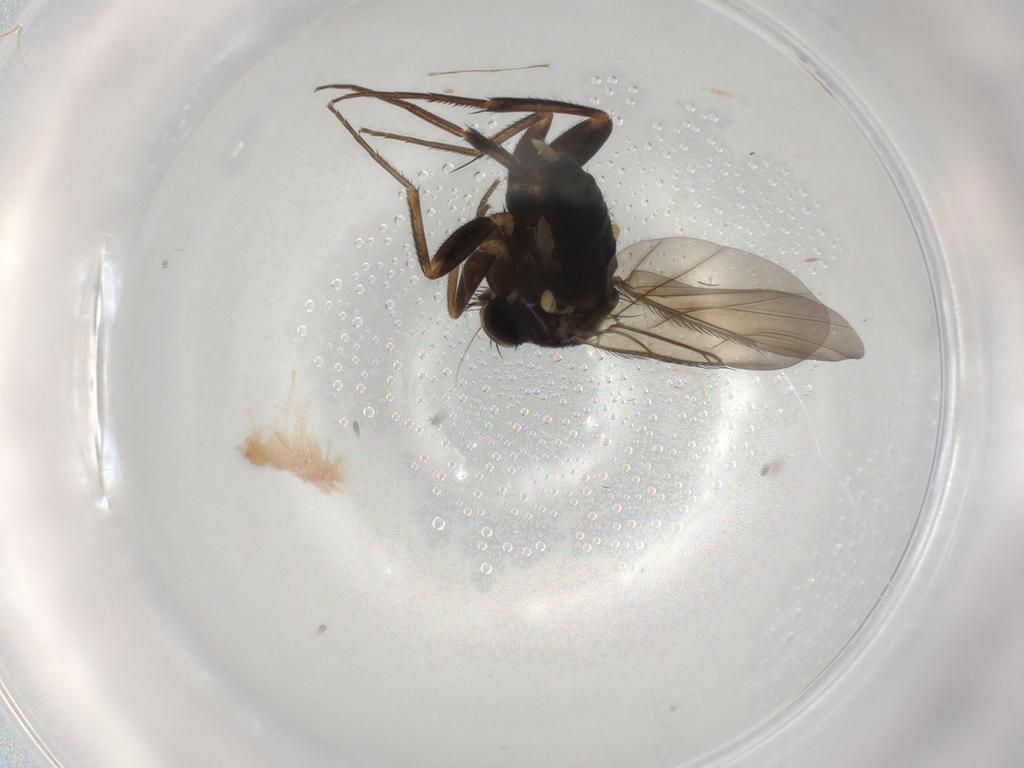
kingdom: Animalia
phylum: Arthropoda
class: Insecta
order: Diptera
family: Phoridae
